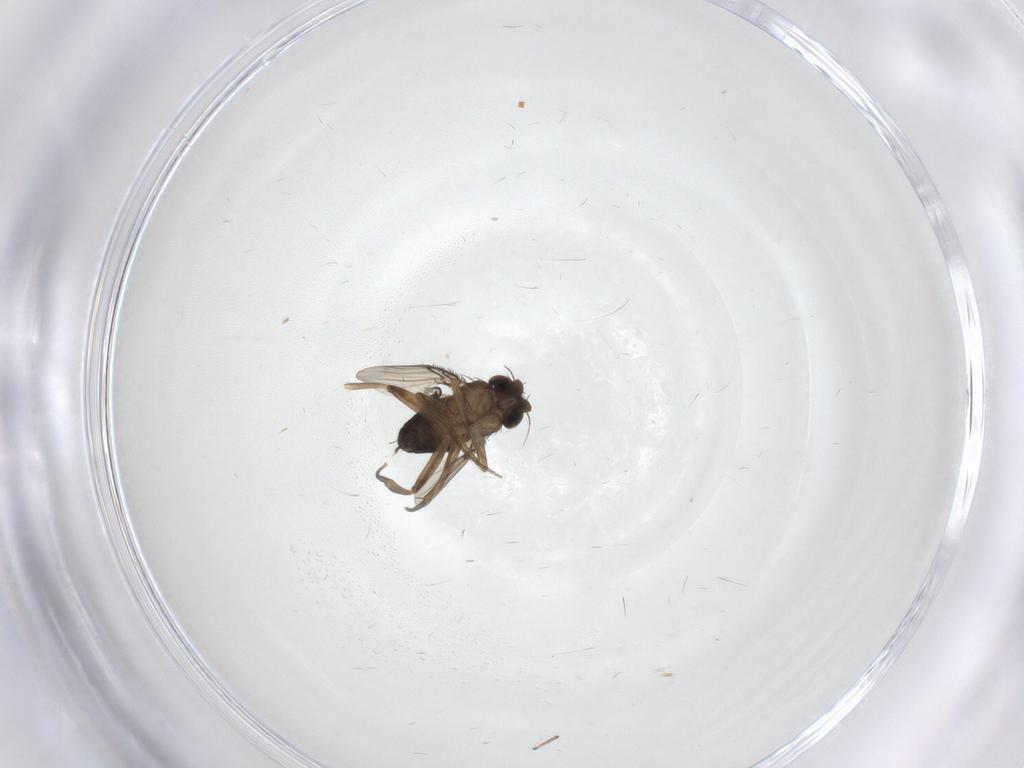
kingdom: Animalia
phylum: Arthropoda
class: Insecta
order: Diptera
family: Phoridae
